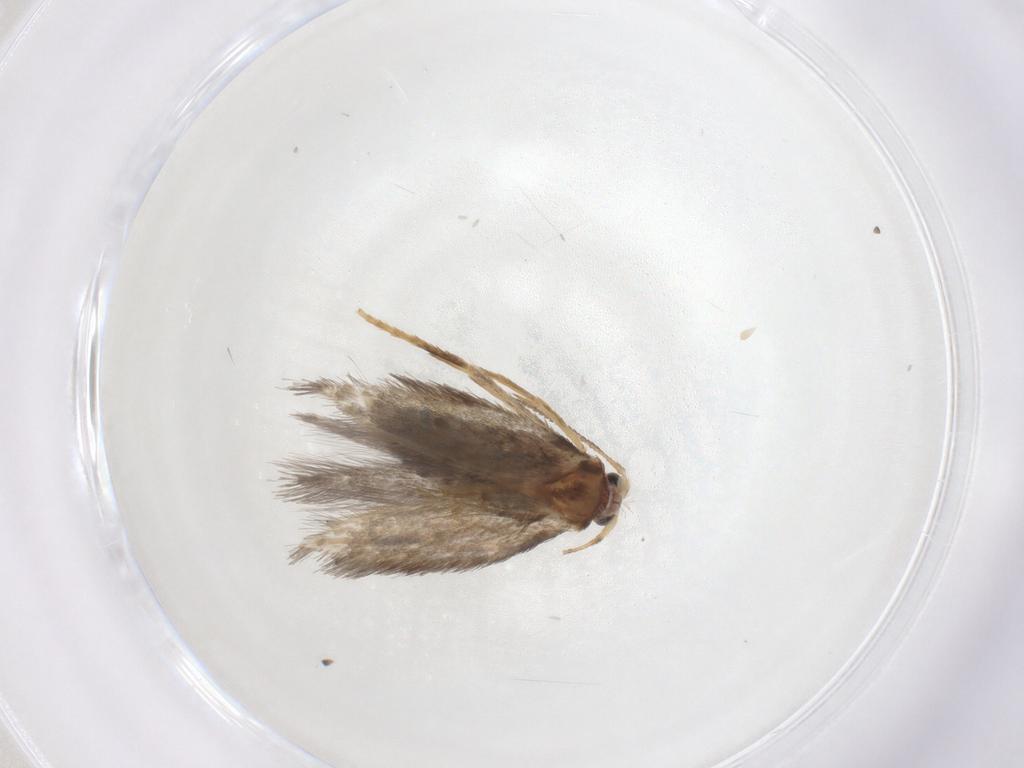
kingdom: Animalia
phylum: Arthropoda
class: Insecta
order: Lepidoptera
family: Nepticulidae
